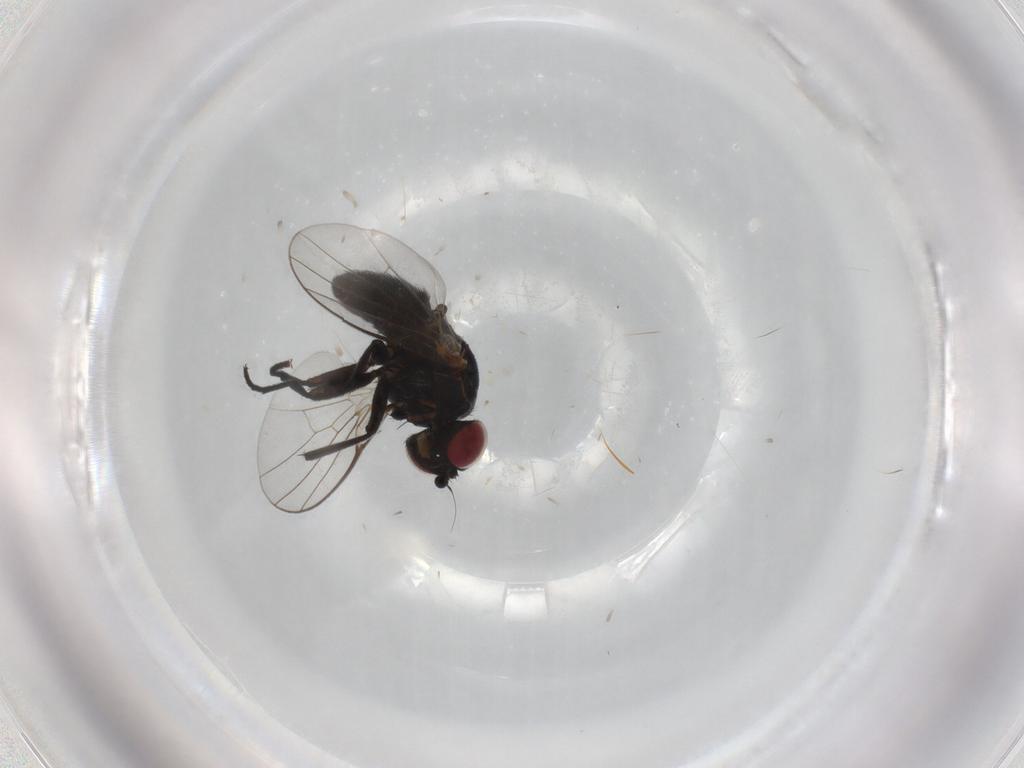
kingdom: Animalia
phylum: Arthropoda
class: Insecta
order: Diptera
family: Agromyzidae
